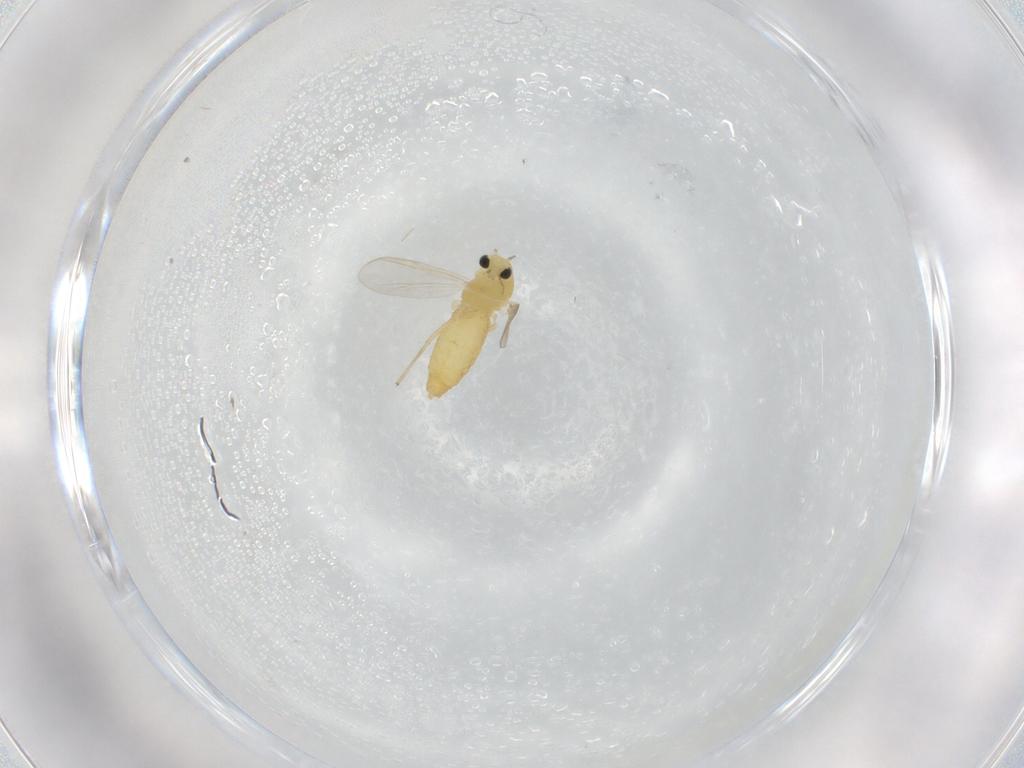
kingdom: Animalia
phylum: Arthropoda
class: Insecta
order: Diptera
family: Chironomidae
